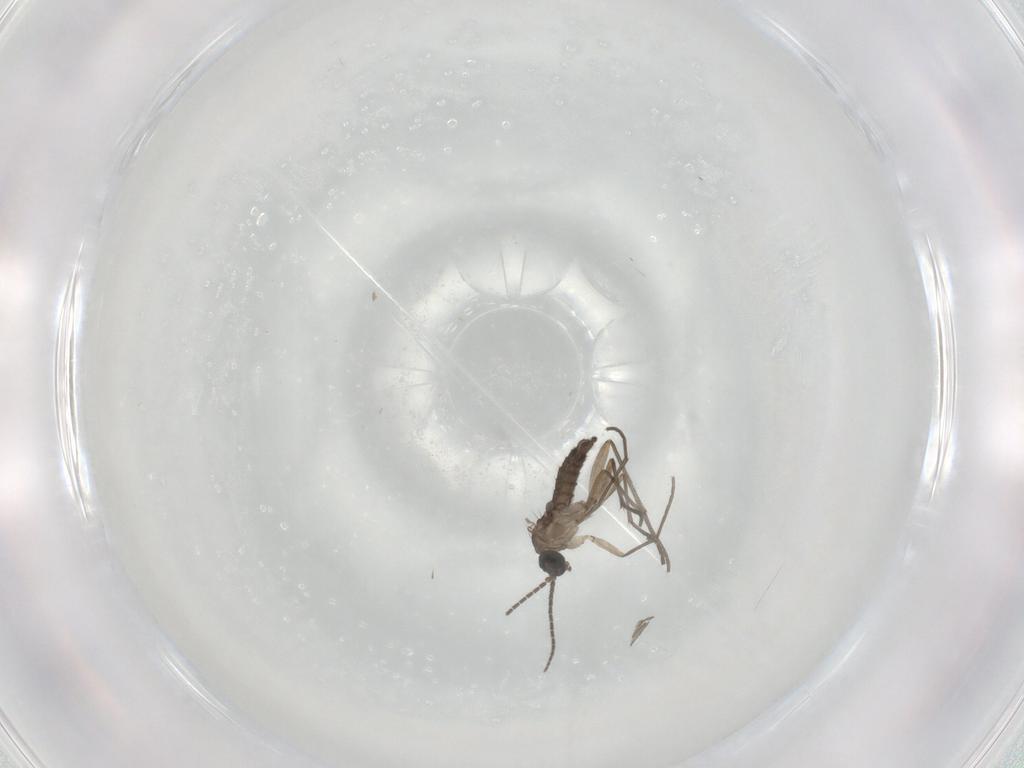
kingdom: Animalia
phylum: Arthropoda
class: Insecta
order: Diptera
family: Sciaridae
